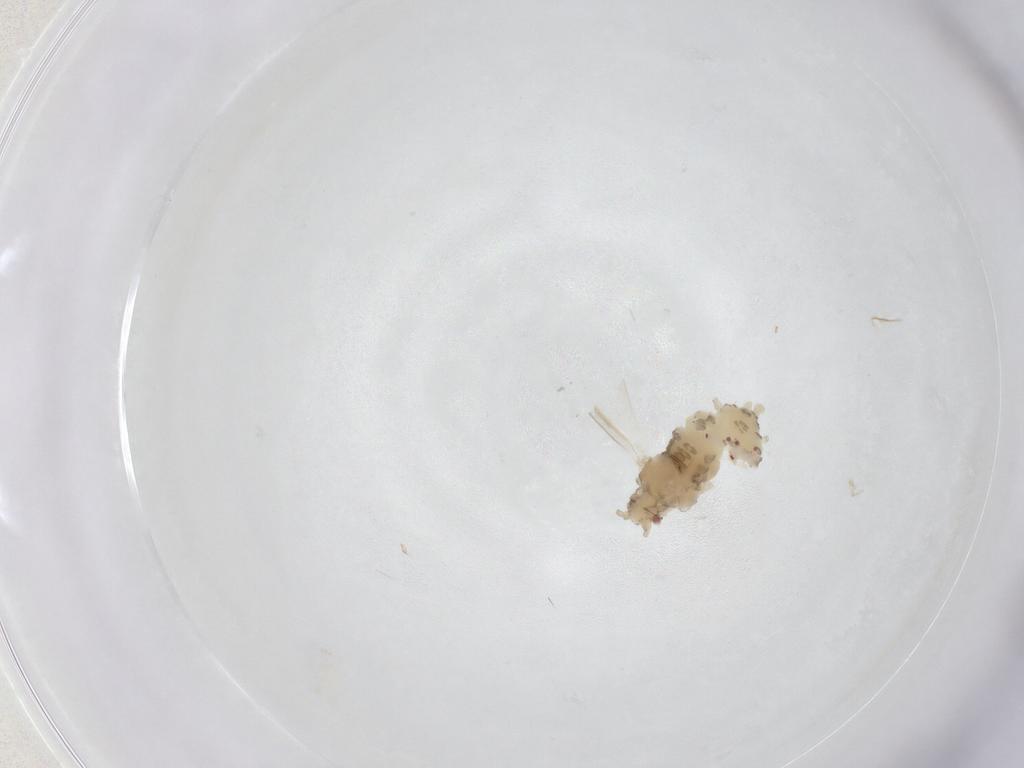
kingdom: Animalia
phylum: Arthropoda
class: Insecta
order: Hemiptera
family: Aphididae
